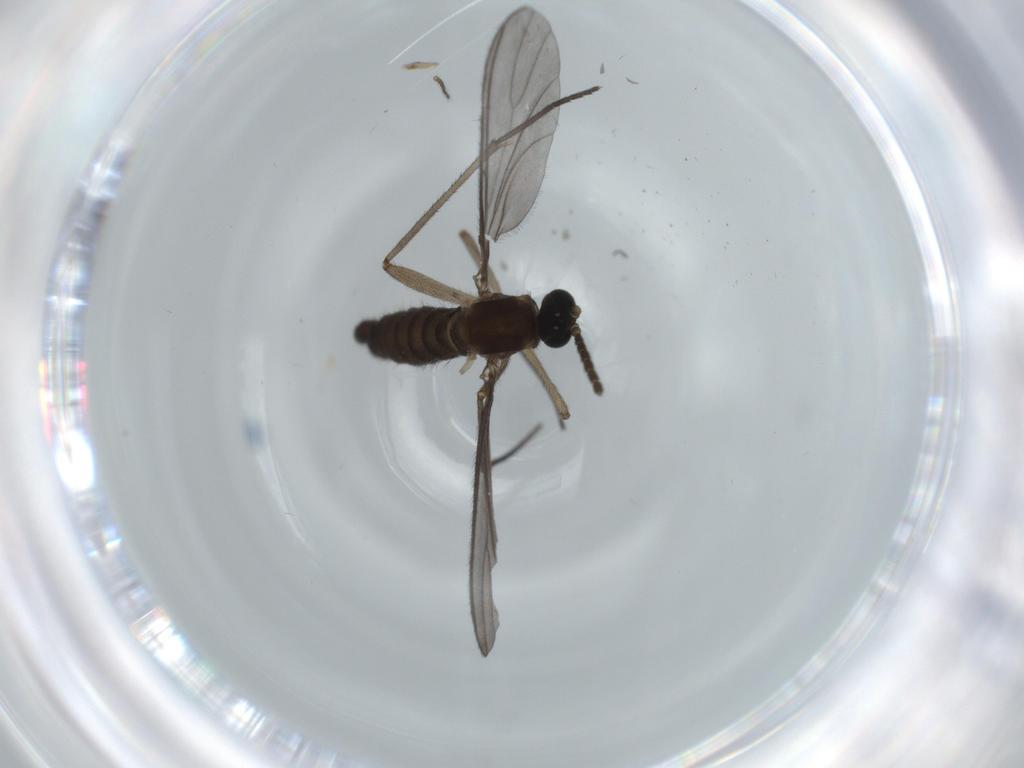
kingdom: Animalia
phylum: Arthropoda
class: Insecta
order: Diptera
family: Sciaridae
